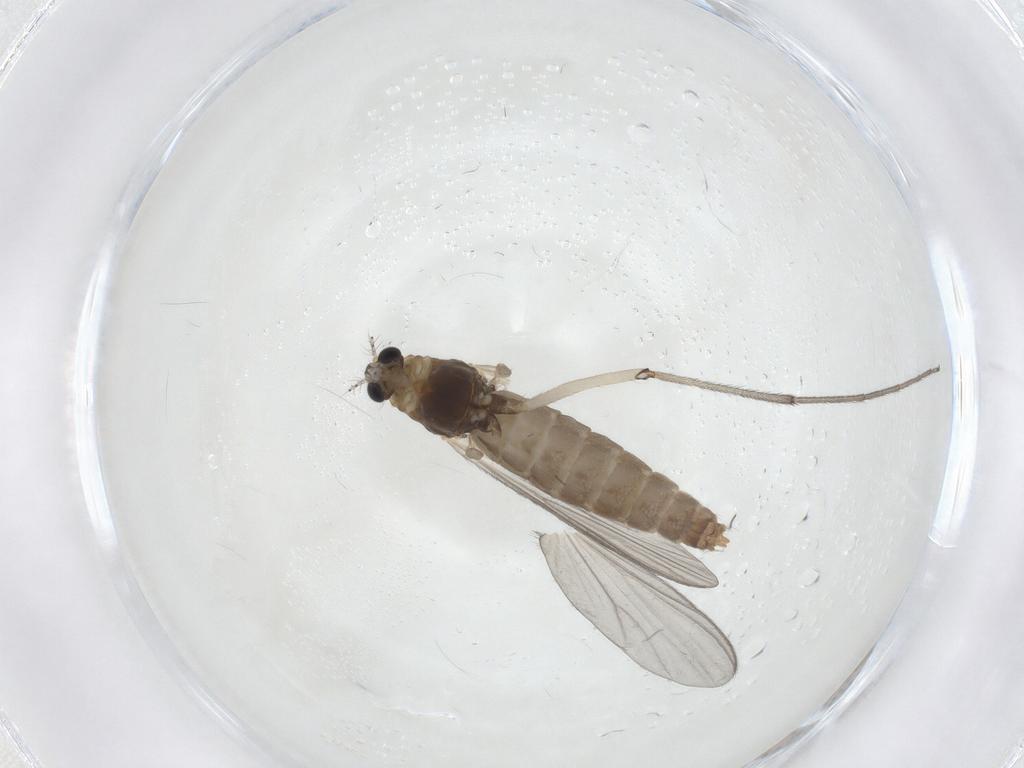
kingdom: Animalia
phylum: Arthropoda
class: Insecta
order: Diptera
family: Chironomidae
